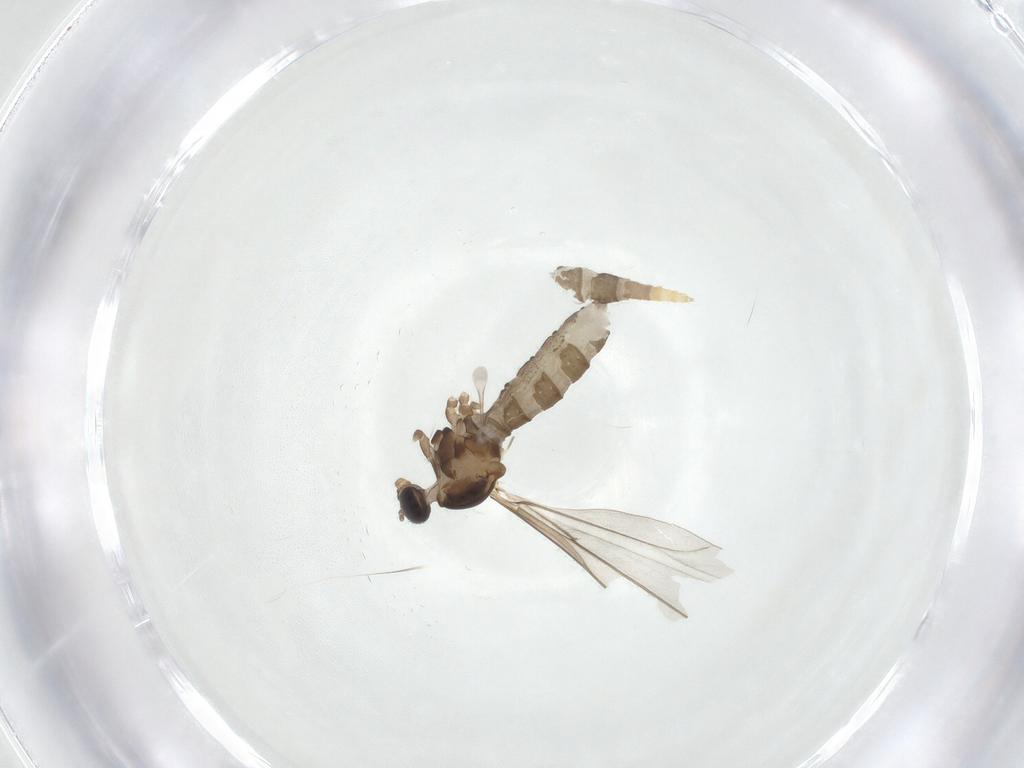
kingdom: Animalia
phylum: Arthropoda
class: Insecta
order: Diptera
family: Cecidomyiidae
